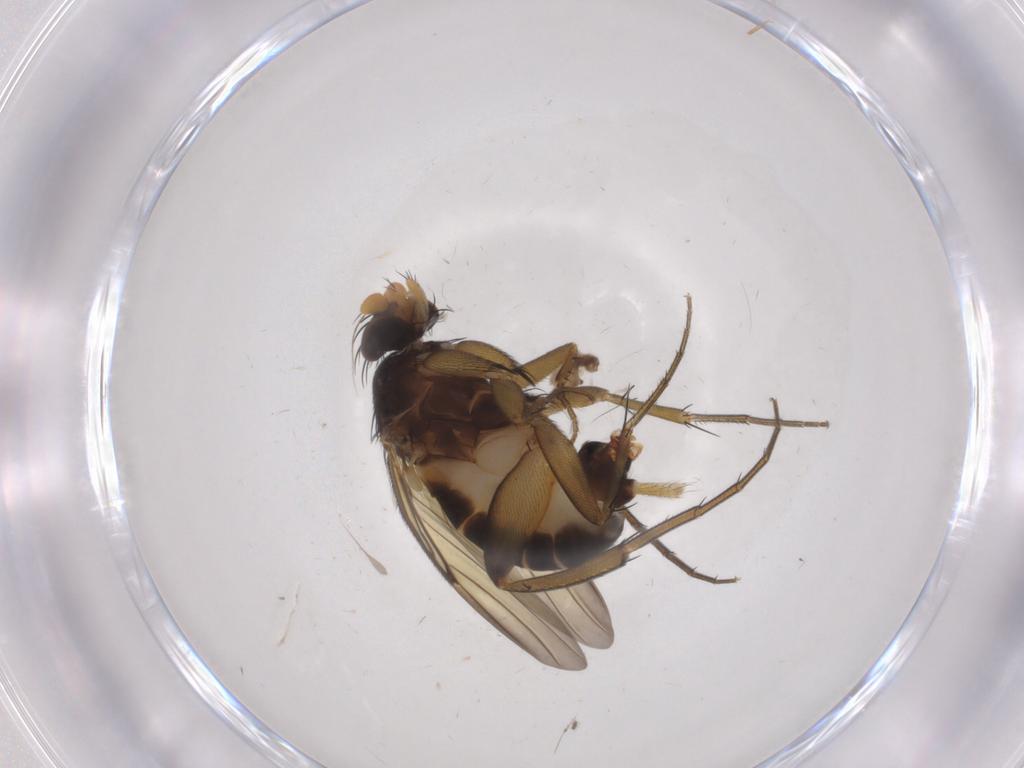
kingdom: Animalia
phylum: Arthropoda
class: Insecta
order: Diptera
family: Phoridae
